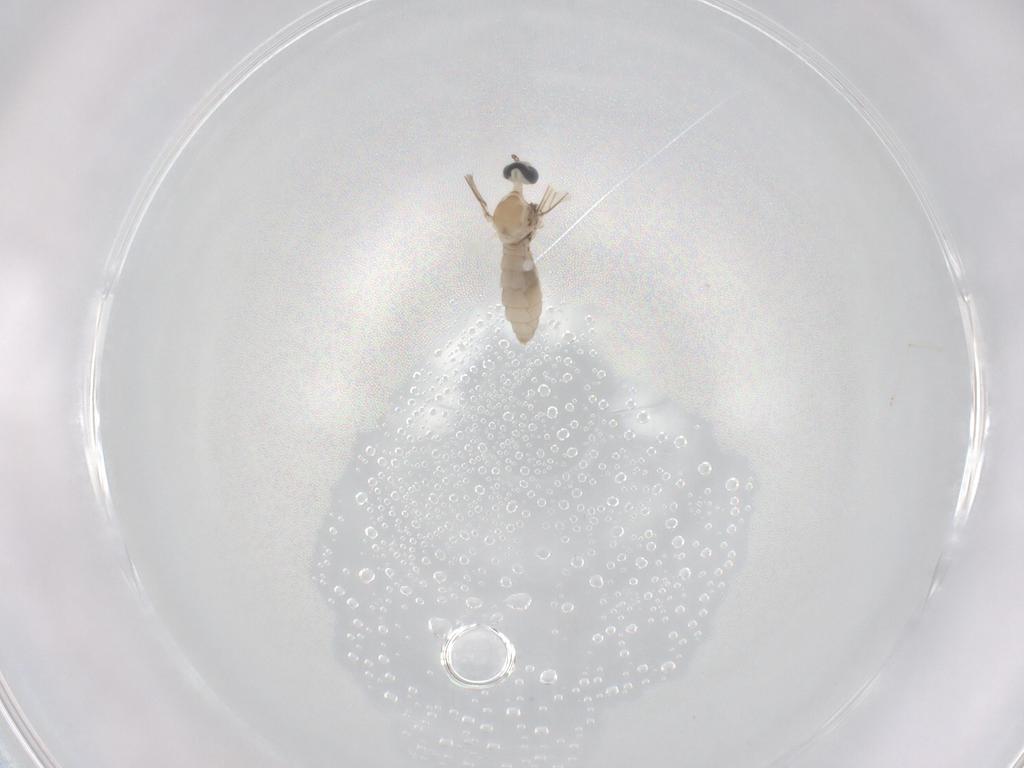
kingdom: Animalia
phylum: Arthropoda
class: Insecta
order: Diptera
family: Cecidomyiidae
